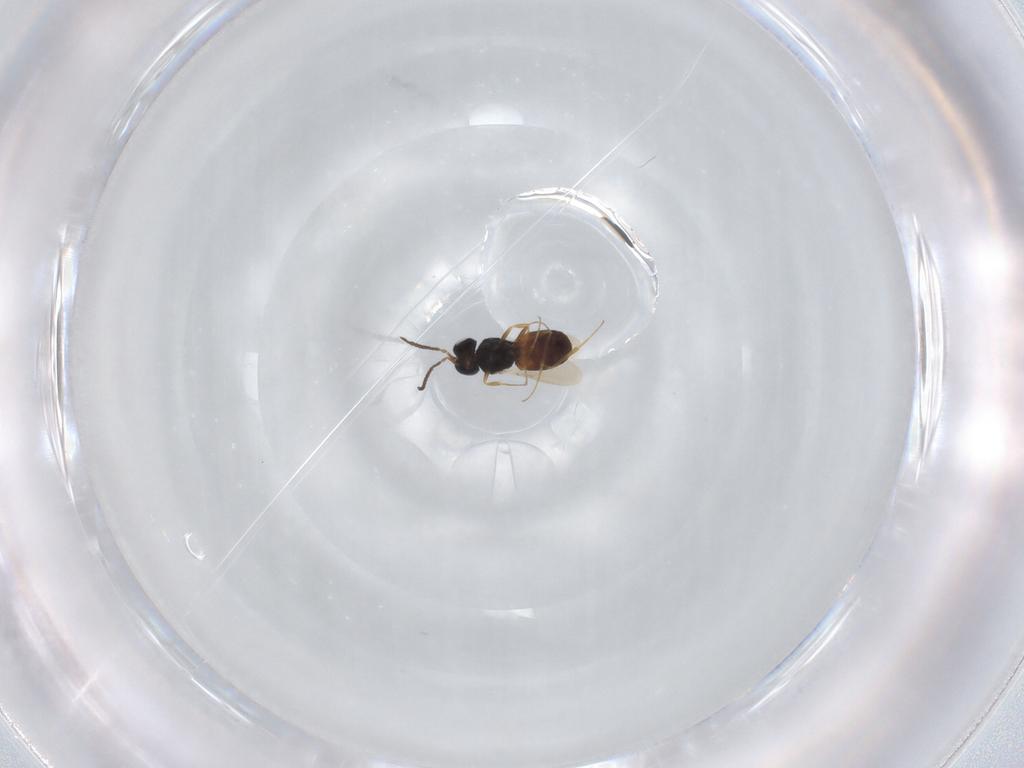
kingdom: Animalia
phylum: Arthropoda
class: Insecta
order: Hymenoptera
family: Scelionidae
